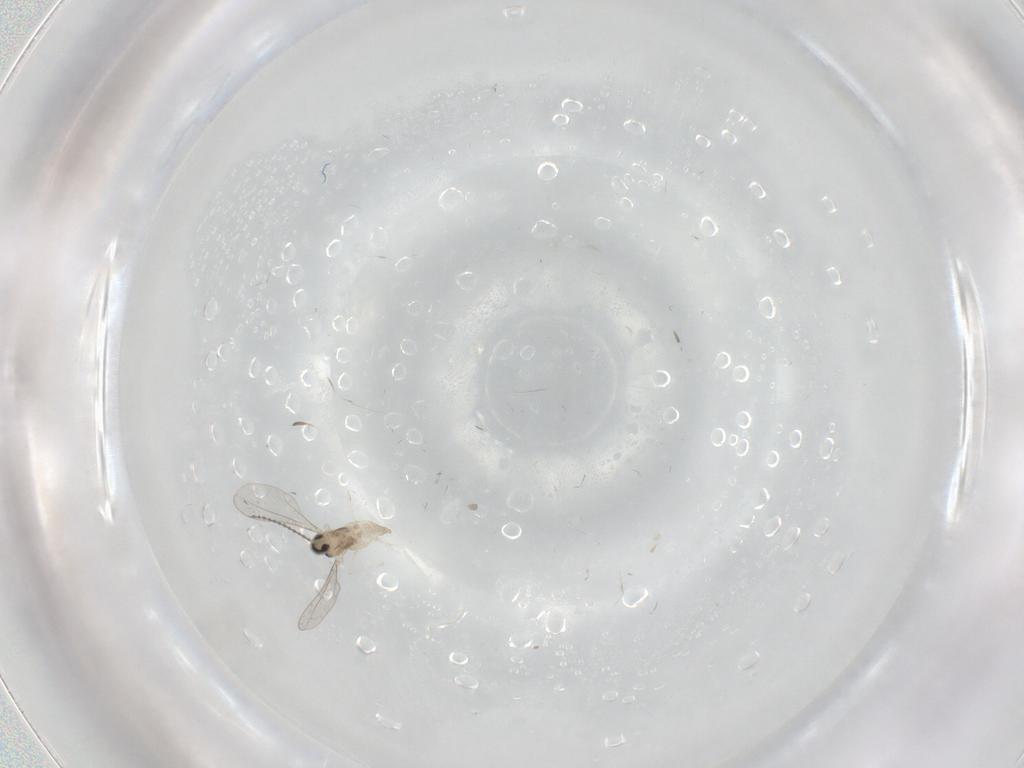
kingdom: Animalia
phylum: Arthropoda
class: Insecta
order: Diptera
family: Cecidomyiidae
